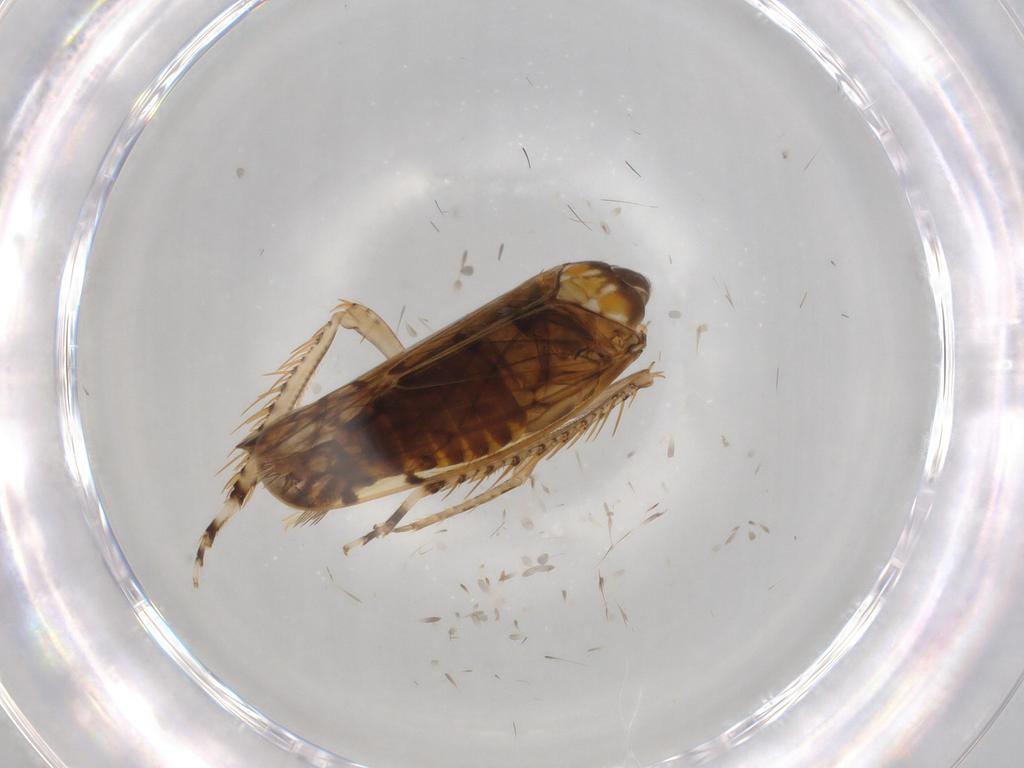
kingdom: Animalia
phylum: Arthropoda
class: Insecta
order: Hemiptera
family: Cicadellidae
